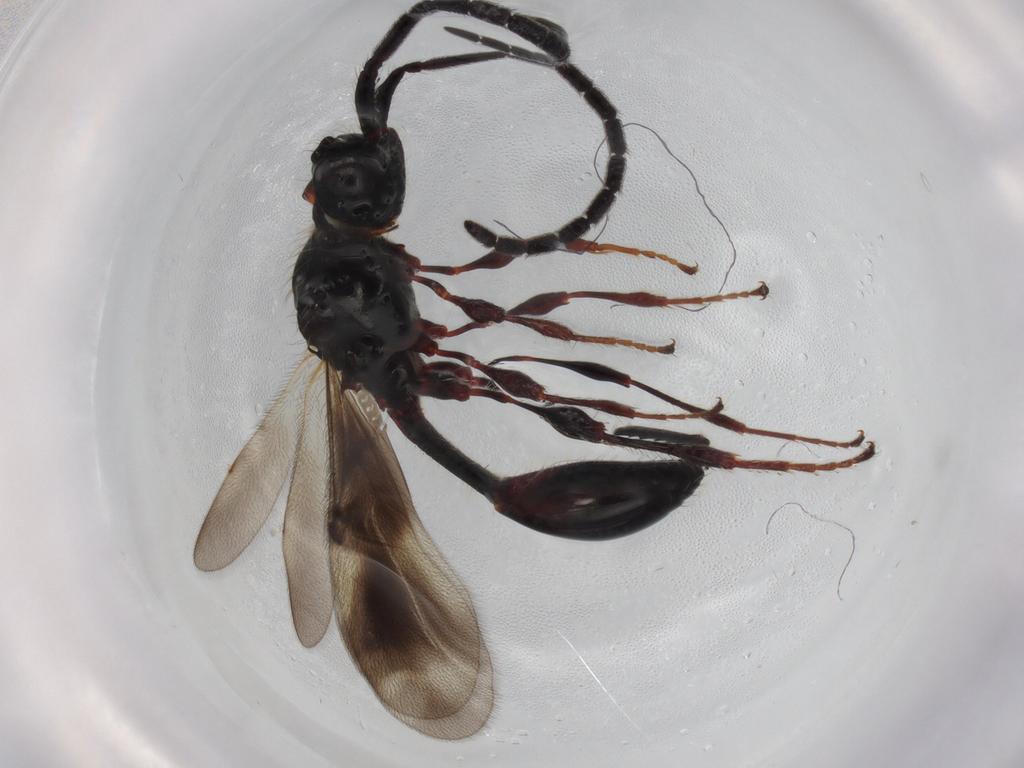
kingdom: Animalia
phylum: Arthropoda
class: Insecta
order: Hymenoptera
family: Diapriidae
